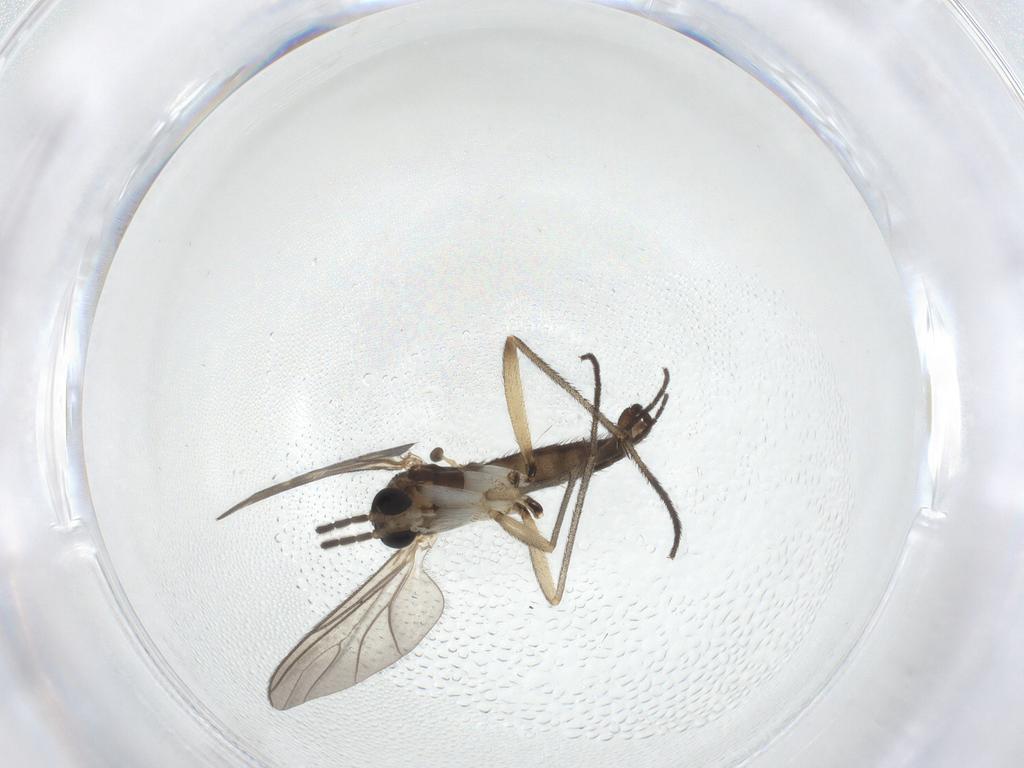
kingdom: Animalia
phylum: Arthropoda
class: Insecta
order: Diptera
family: Sciaridae
